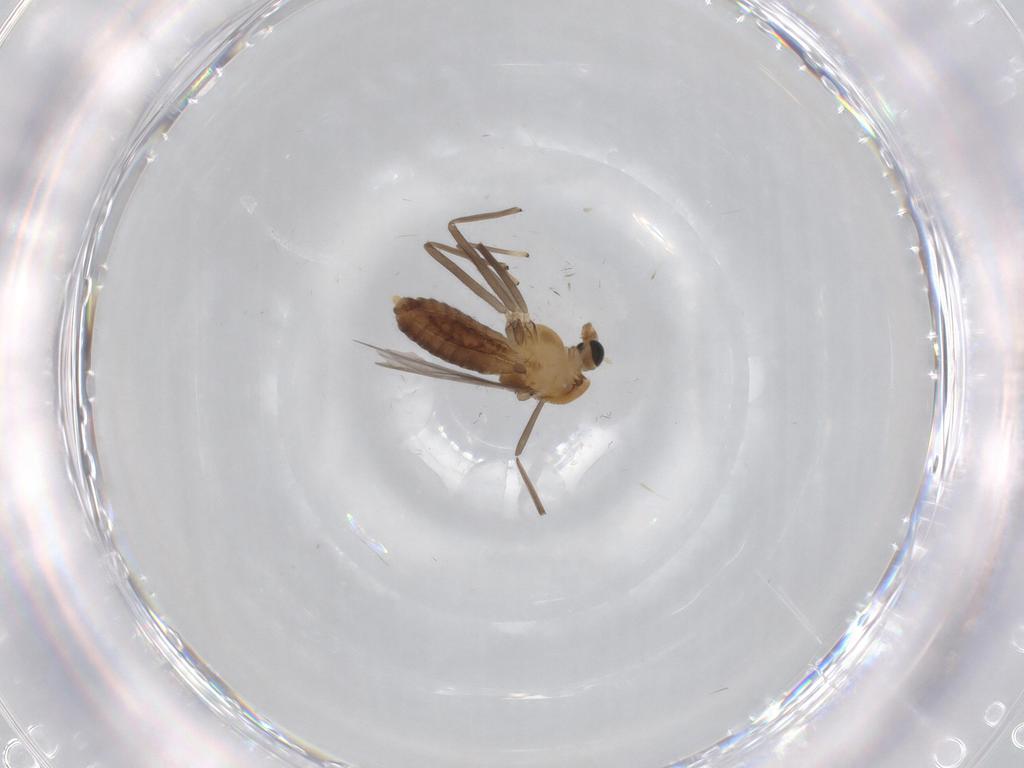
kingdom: Animalia
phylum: Arthropoda
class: Insecta
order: Diptera
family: Chironomidae
